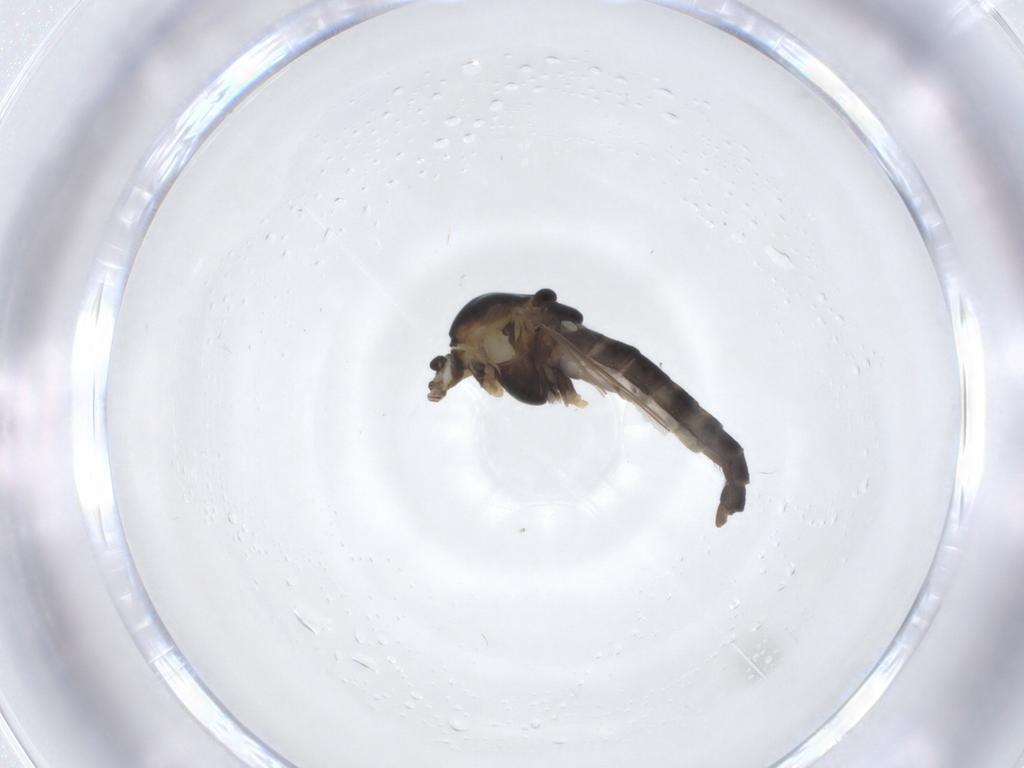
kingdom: Animalia
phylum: Arthropoda
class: Insecta
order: Diptera
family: Chironomidae
